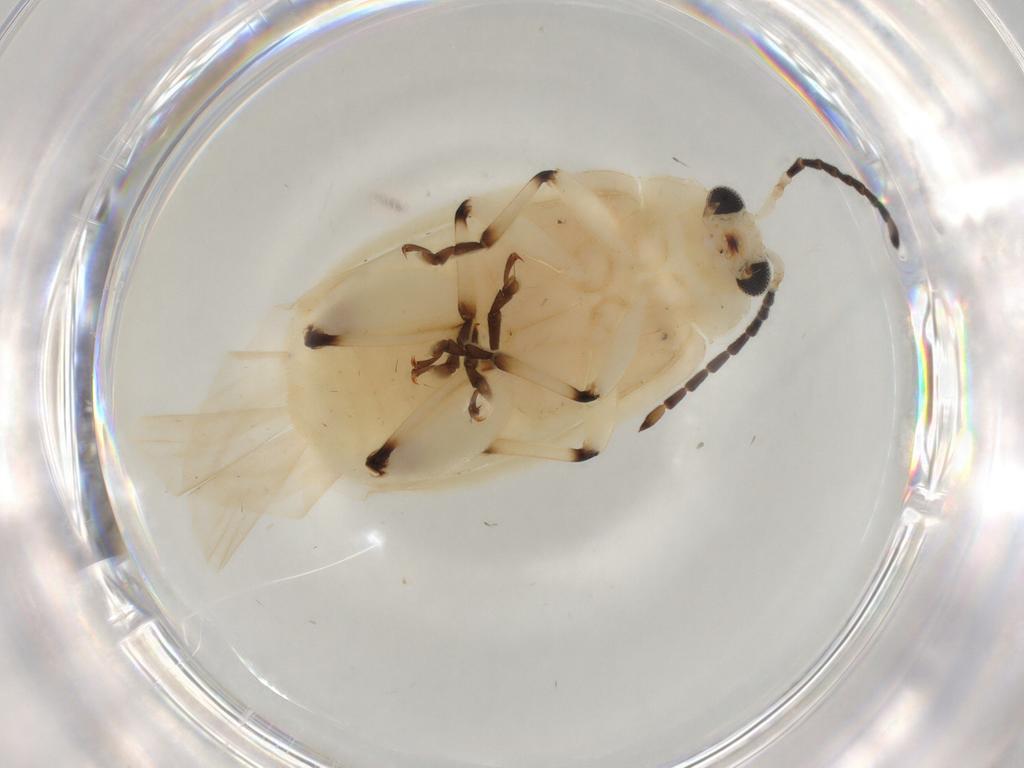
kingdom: Animalia
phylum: Arthropoda
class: Insecta
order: Coleoptera
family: Chrysomelidae
